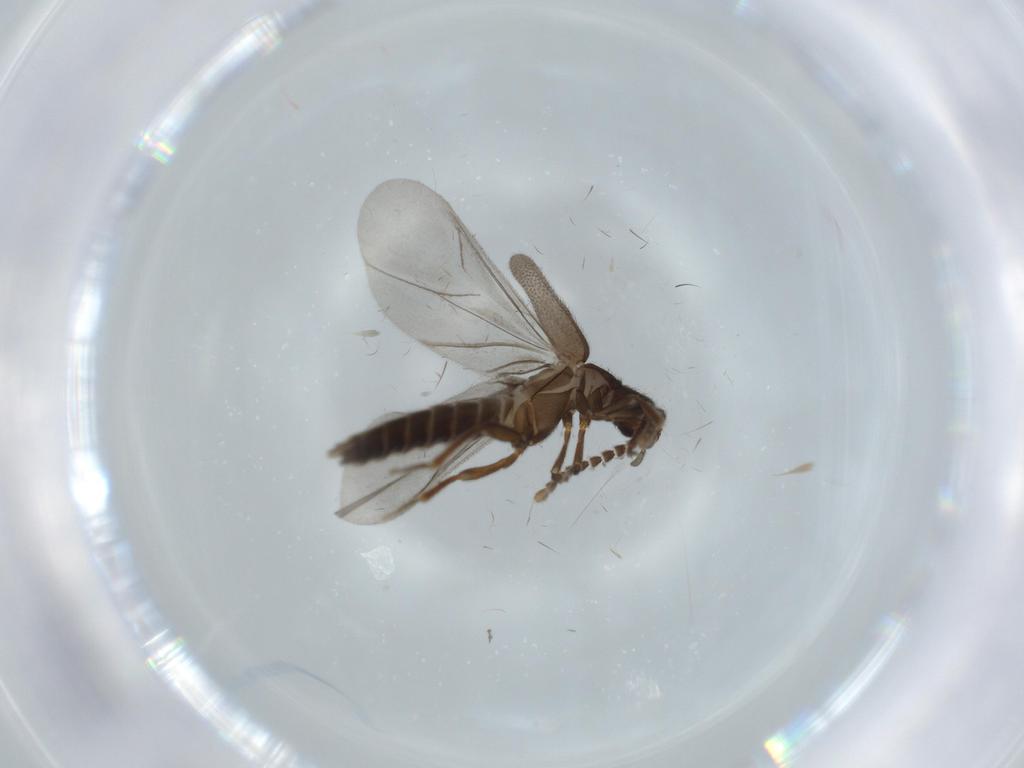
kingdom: Animalia
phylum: Arthropoda
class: Insecta
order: Coleoptera
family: Omethidae
